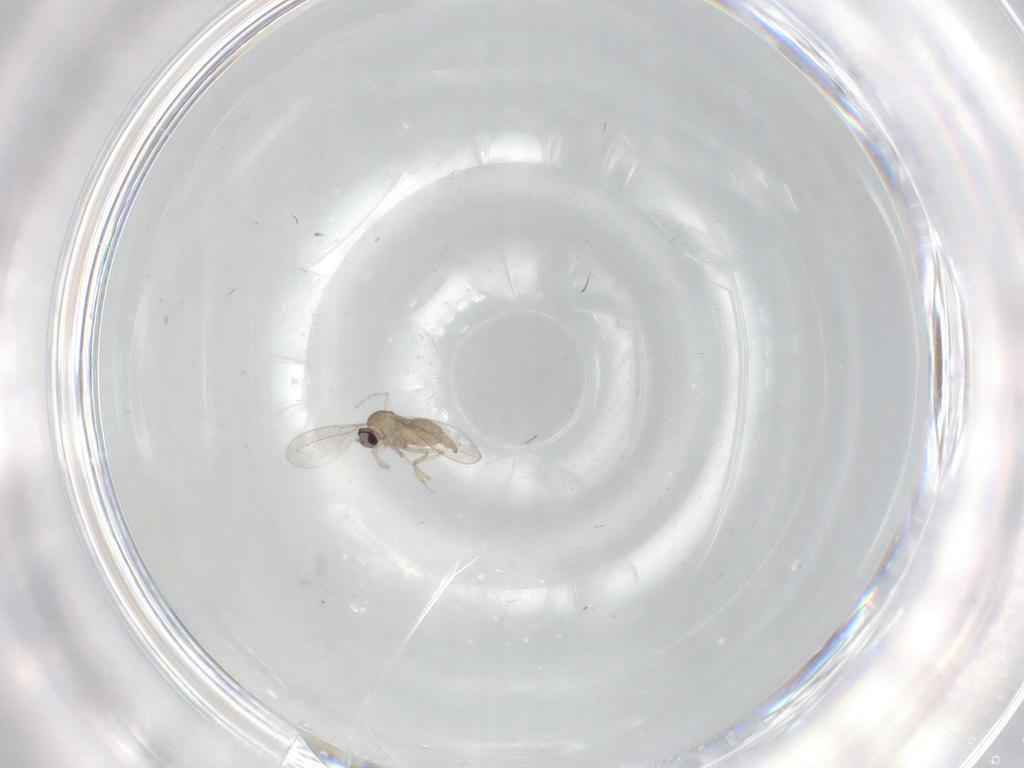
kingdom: Animalia
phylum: Arthropoda
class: Insecta
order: Diptera
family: Cecidomyiidae
